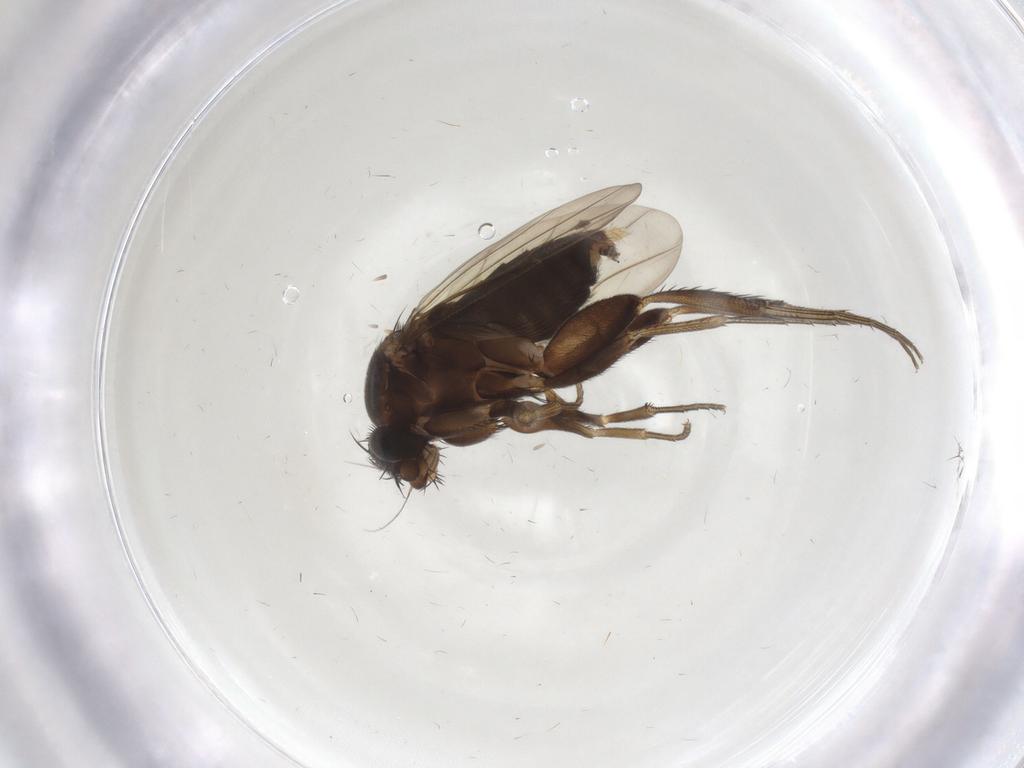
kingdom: Animalia
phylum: Arthropoda
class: Insecta
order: Diptera
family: Phoridae
